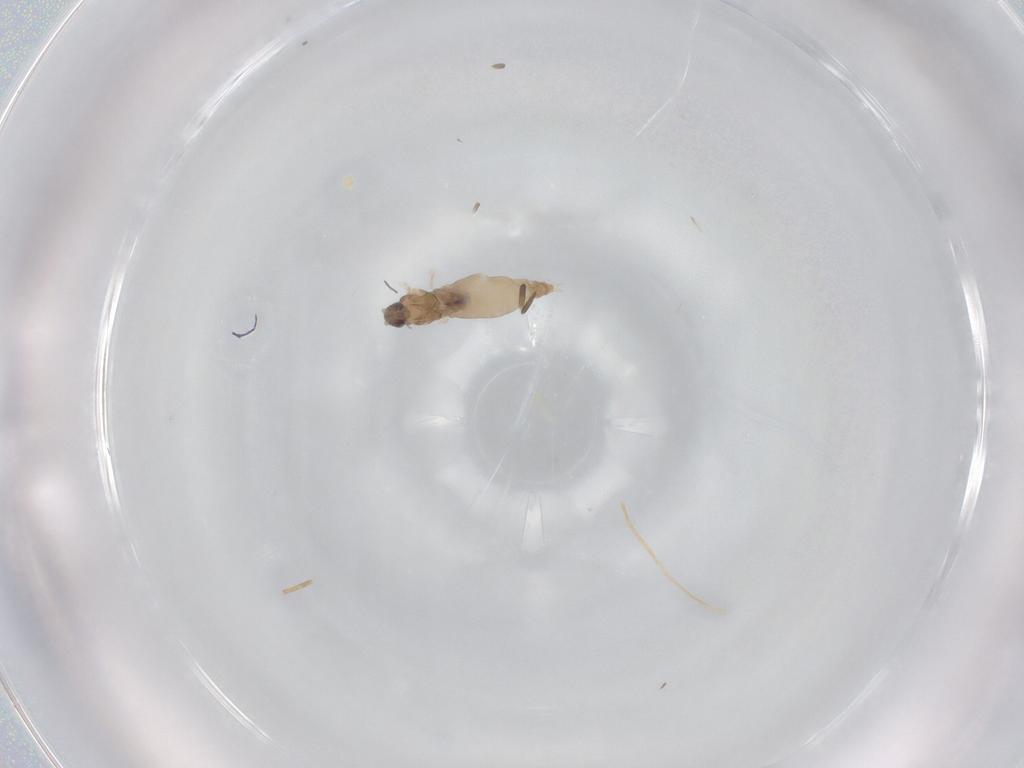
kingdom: Animalia
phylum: Arthropoda
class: Insecta
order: Diptera
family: Cecidomyiidae
